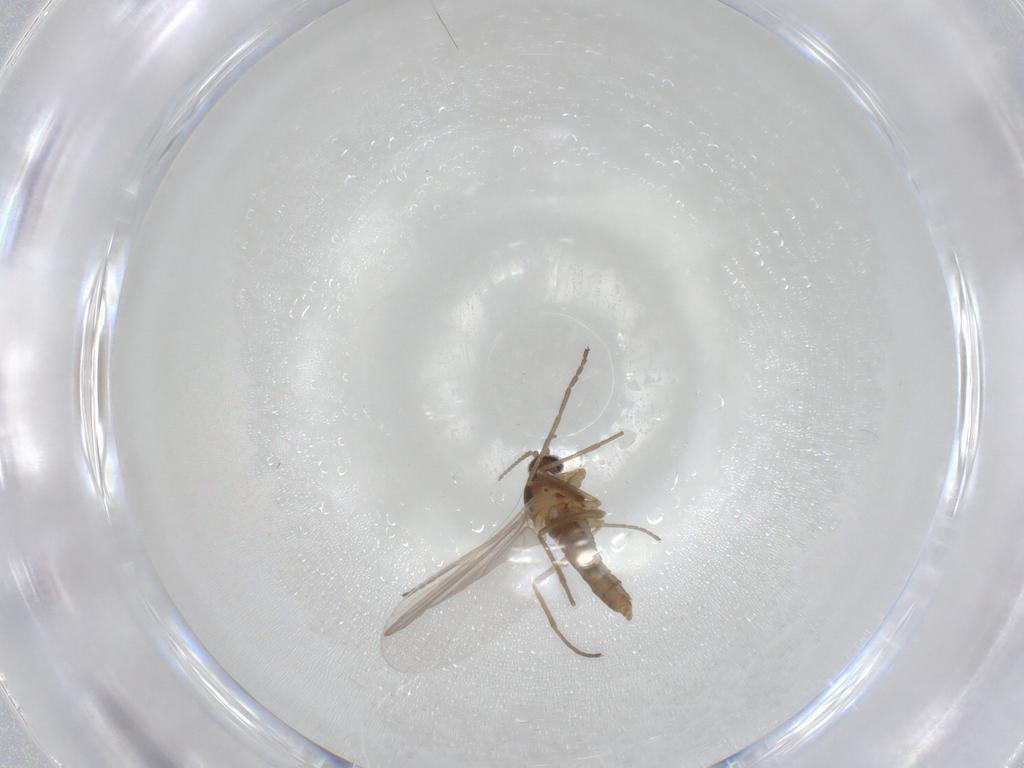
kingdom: Animalia
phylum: Arthropoda
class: Insecta
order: Diptera
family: Cecidomyiidae
